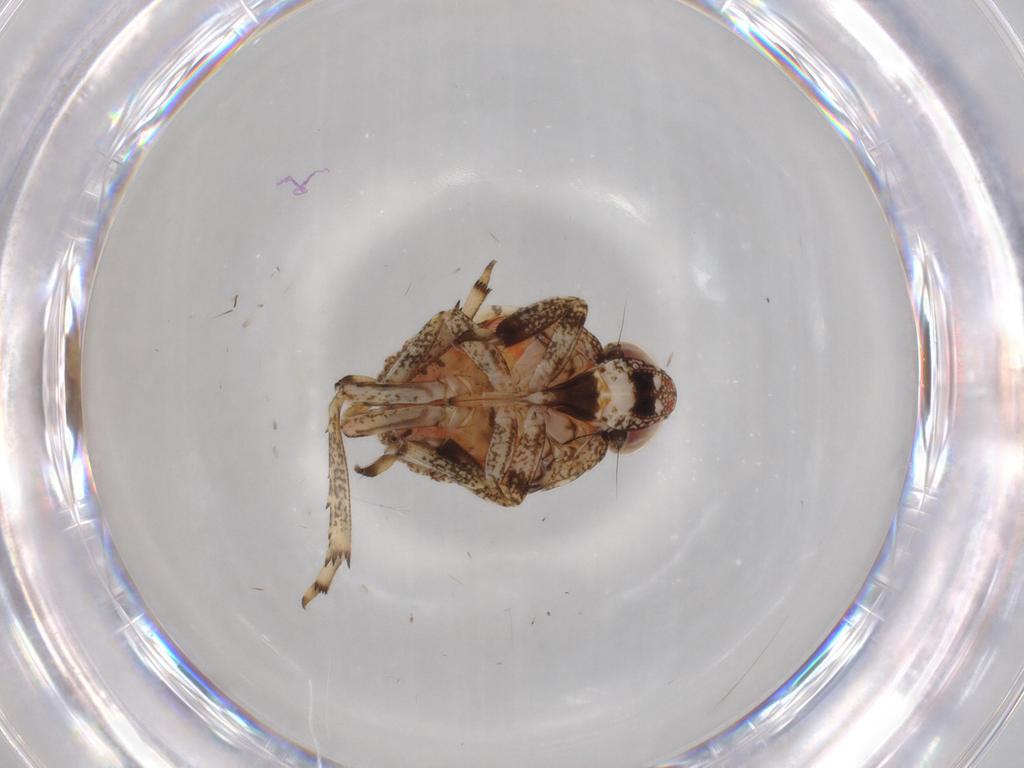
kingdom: Animalia
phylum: Arthropoda
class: Insecta
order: Hemiptera
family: Issidae
